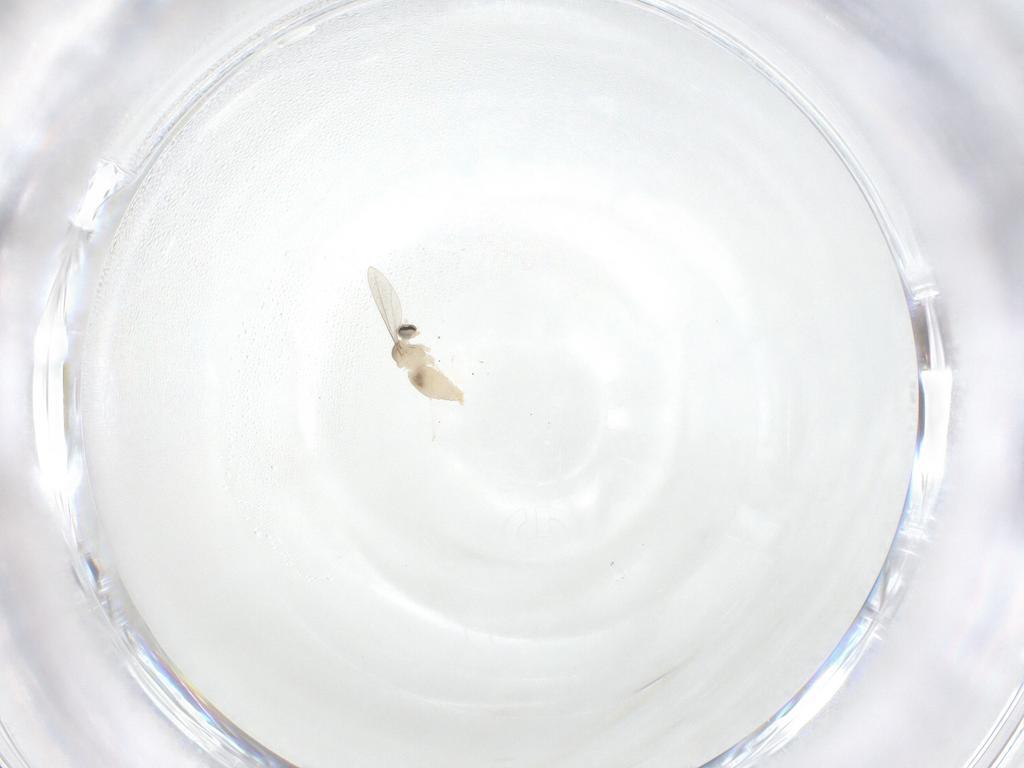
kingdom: Animalia
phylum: Arthropoda
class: Insecta
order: Diptera
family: Cecidomyiidae
